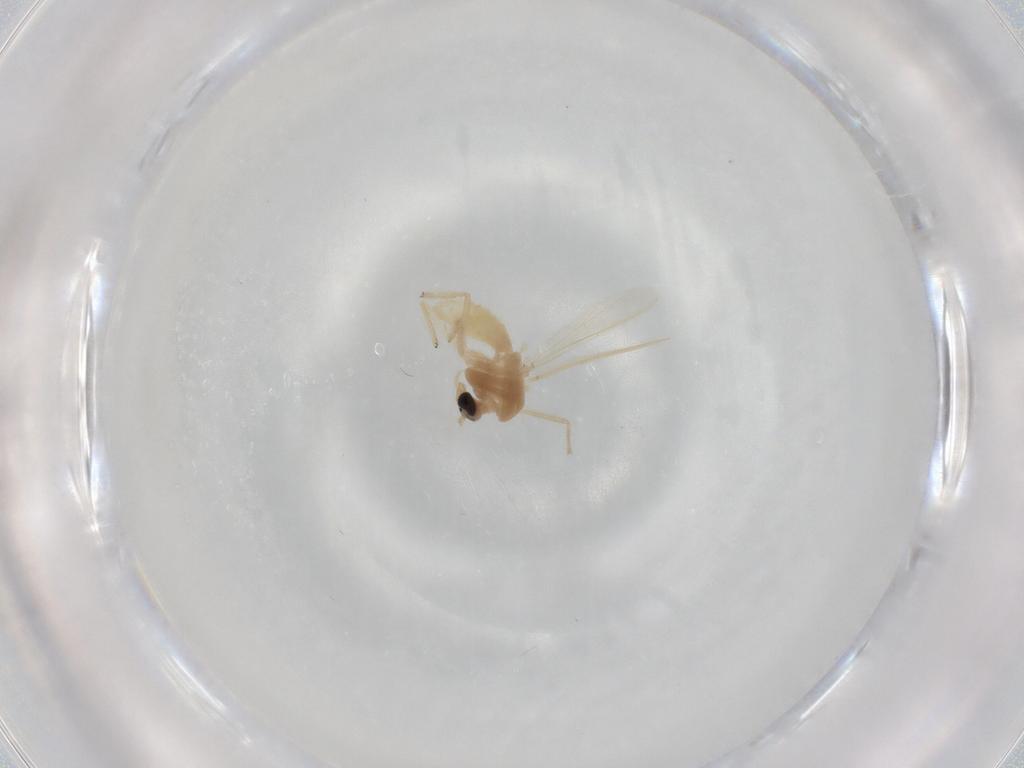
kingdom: Animalia
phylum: Arthropoda
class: Insecta
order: Diptera
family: Chironomidae
